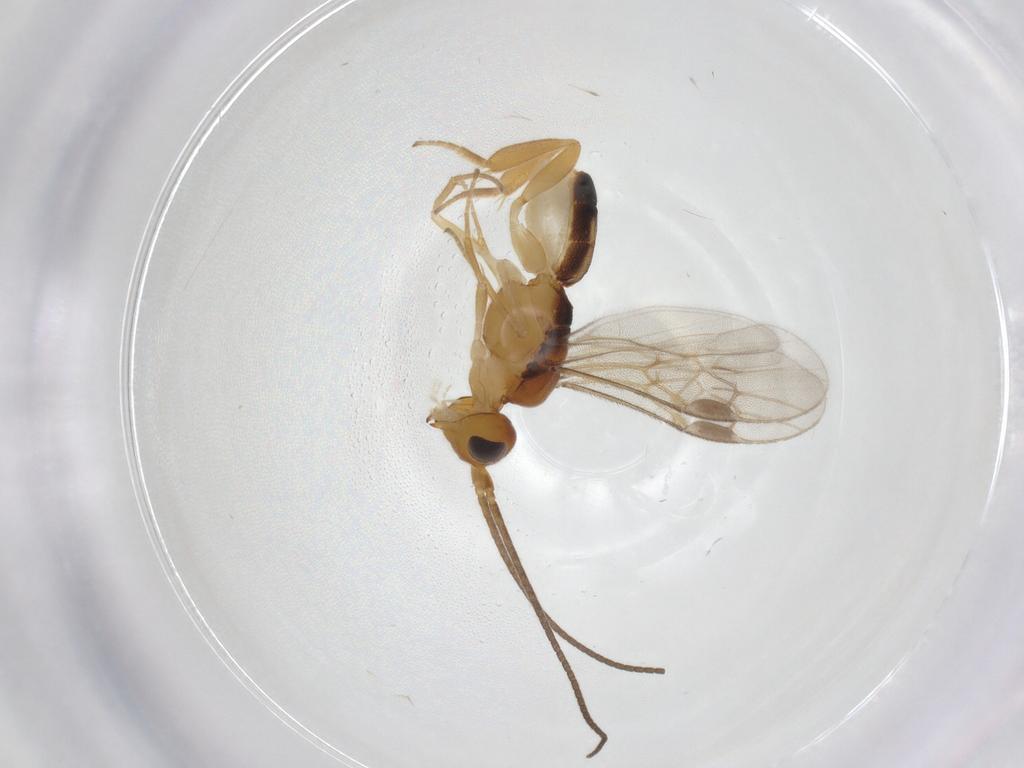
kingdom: Animalia
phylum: Arthropoda
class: Insecta
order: Hymenoptera
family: Braconidae
